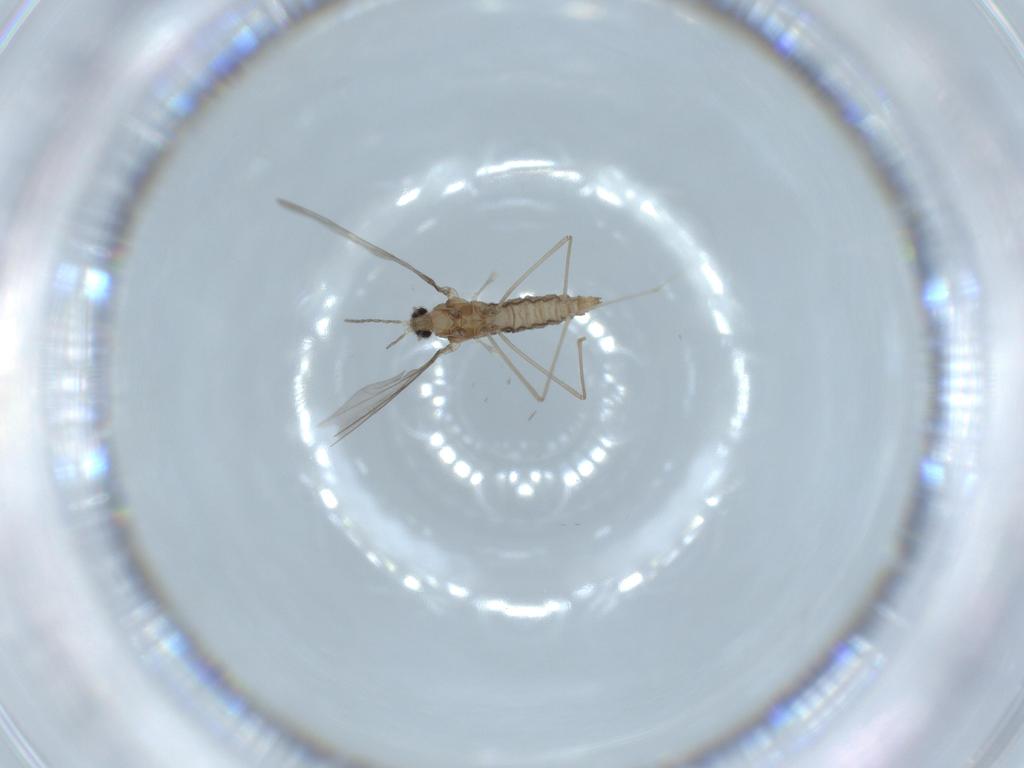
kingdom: Animalia
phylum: Arthropoda
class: Insecta
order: Diptera
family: Cecidomyiidae
